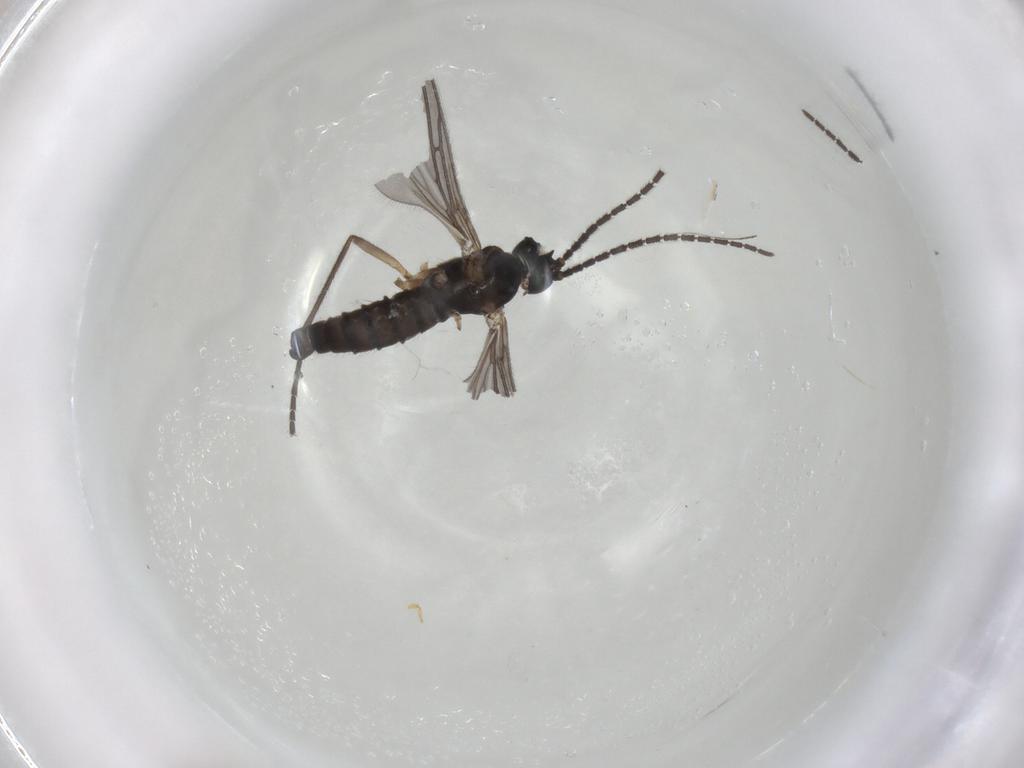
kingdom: Animalia
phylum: Arthropoda
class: Insecta
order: Diptera
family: Sciaridae
